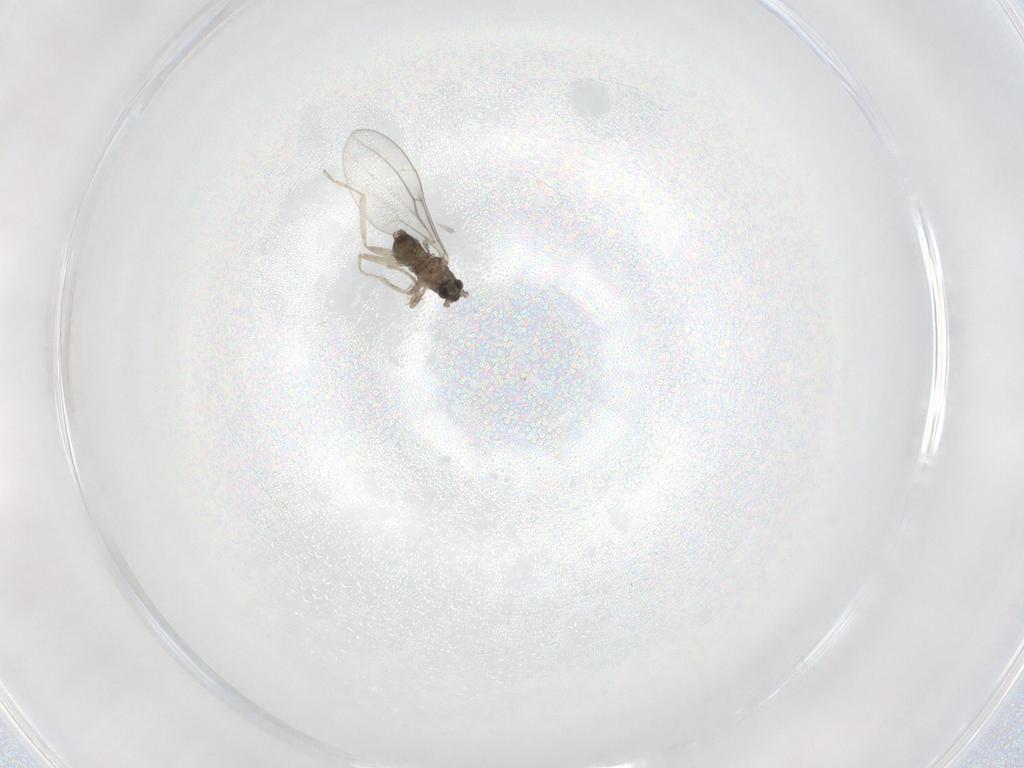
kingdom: Animalia
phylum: Arthropoda
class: Insecta
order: Diptera
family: Cecidomyiidae
